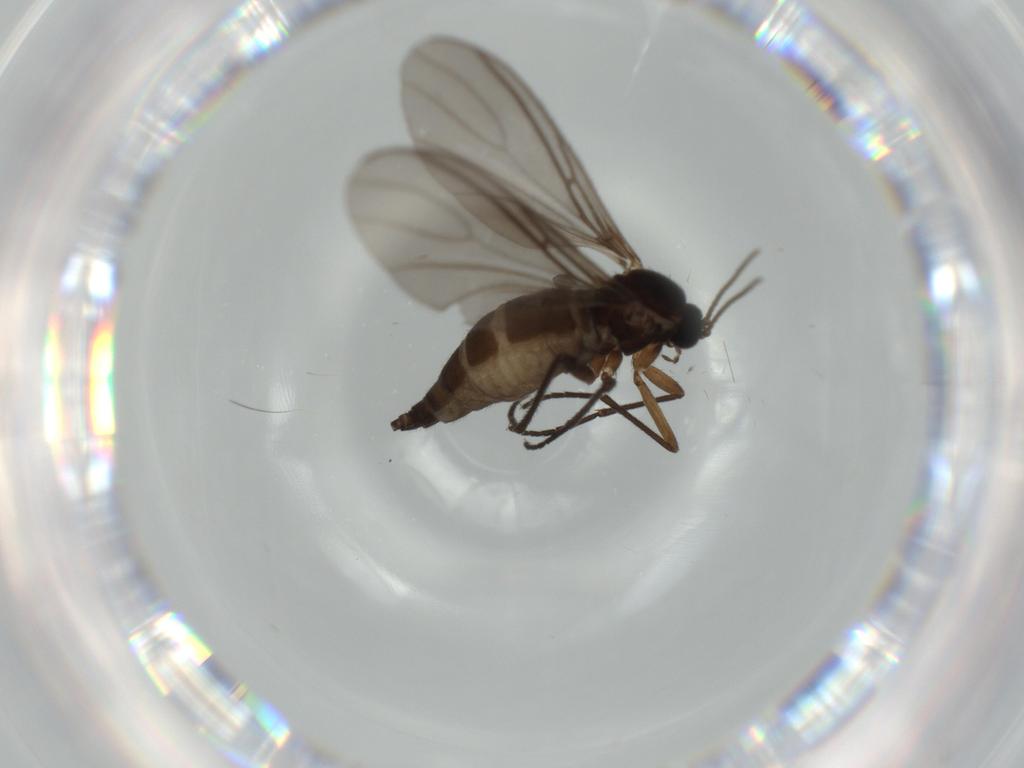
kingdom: Animalia
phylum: Arthropoda
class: Insecta
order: Diptera
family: Sciaridae
